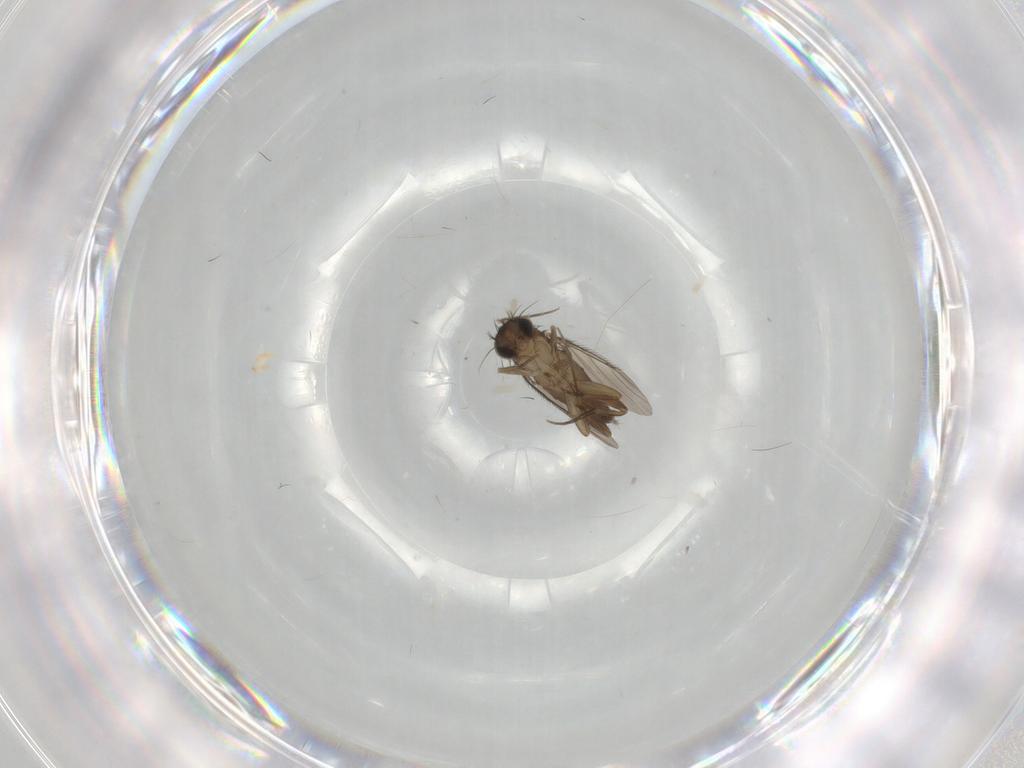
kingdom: Animalia
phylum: Arthropoda
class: Insecta
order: Diptera
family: Phoridae
